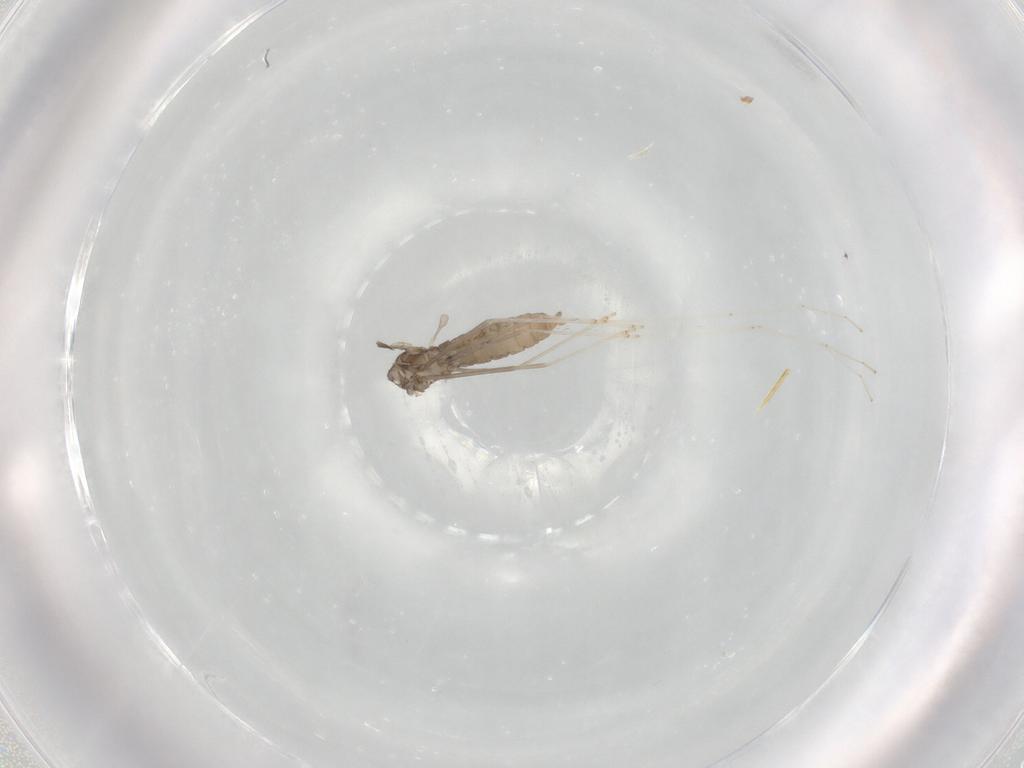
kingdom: Animalia
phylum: Arthropoda
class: Insecta
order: Diptera
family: Cecidomyiidae
